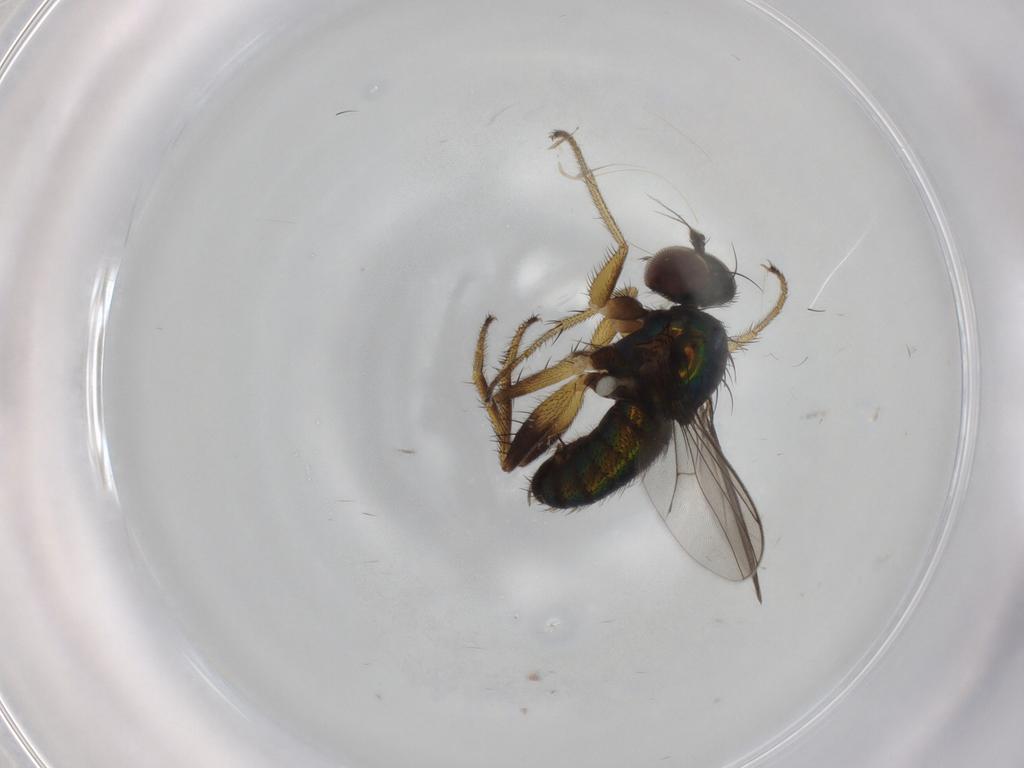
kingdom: Animalia
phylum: Arthropoda
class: Insecta
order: Diptera
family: Dolichopodidae
